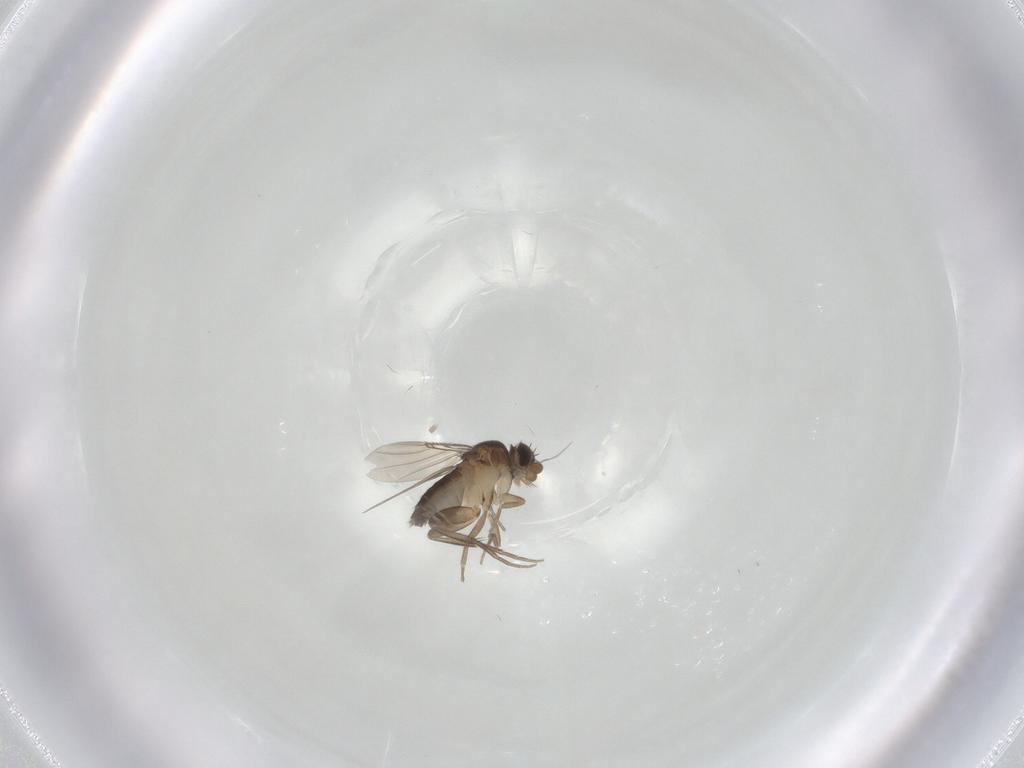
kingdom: Animalia
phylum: Arthropoda
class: Insecta
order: Diptera
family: Phoridae
